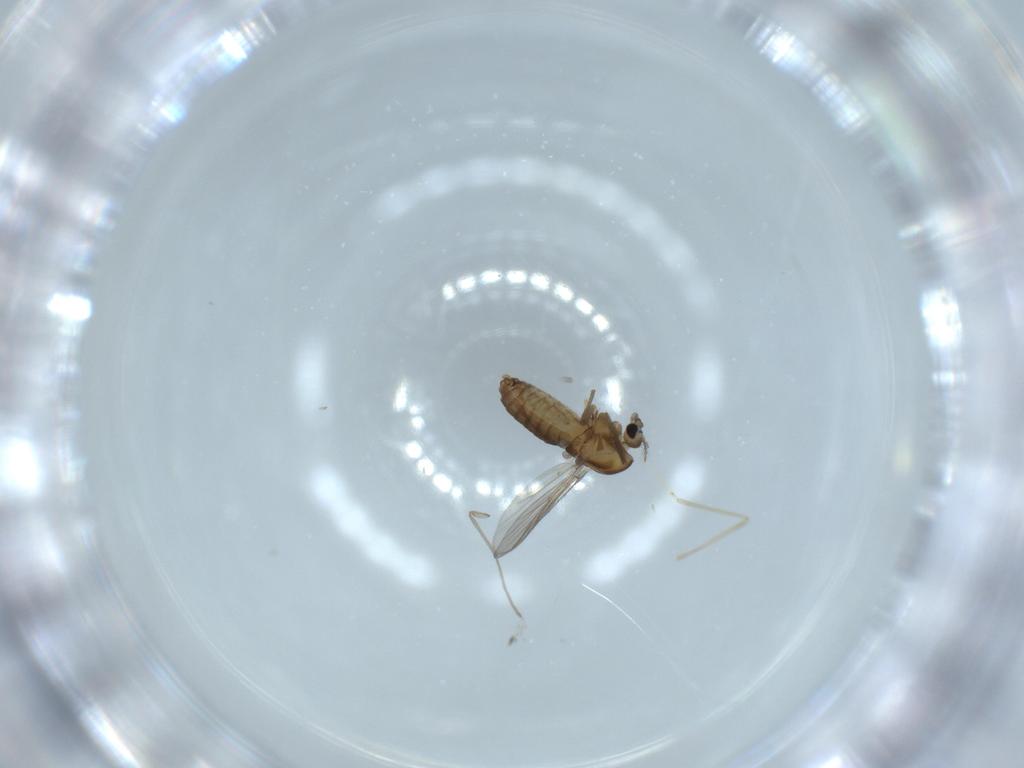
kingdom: Animalia
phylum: Arthropoda
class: Insecta
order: Diptera
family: Chironomidae
